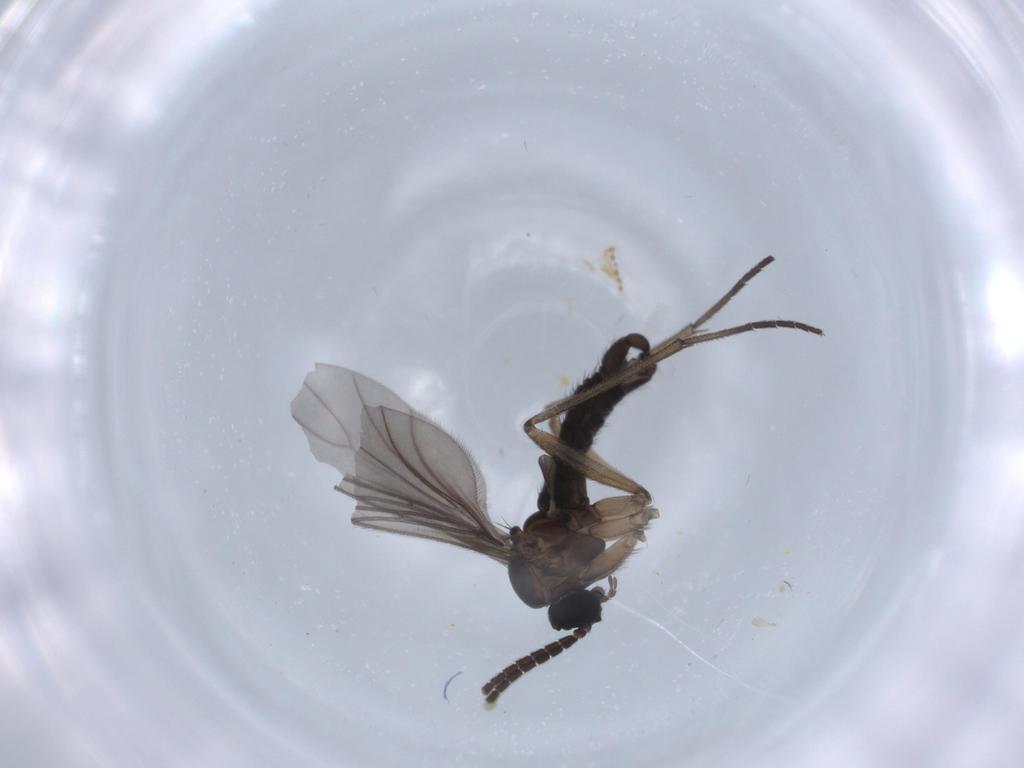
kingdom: Animalia
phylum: Arthropoda
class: Insecta
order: Diptera
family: Sciaridae
